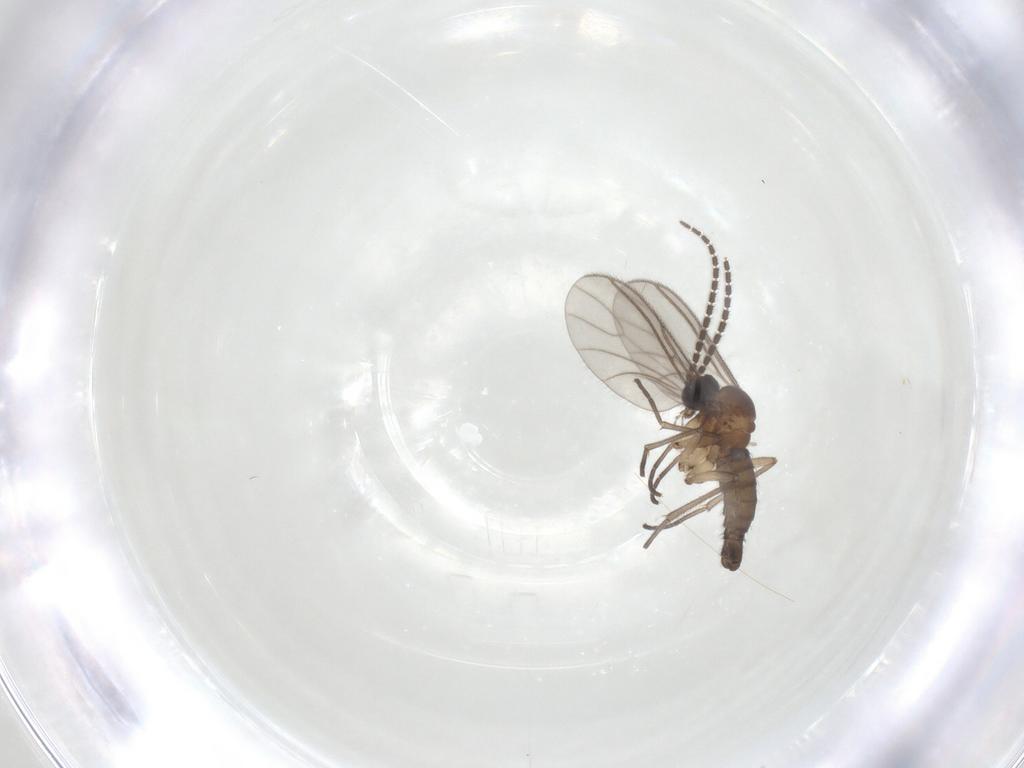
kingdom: Animalia
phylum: Arthropoda
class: Insecta
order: Diptera
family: Sciaridae
